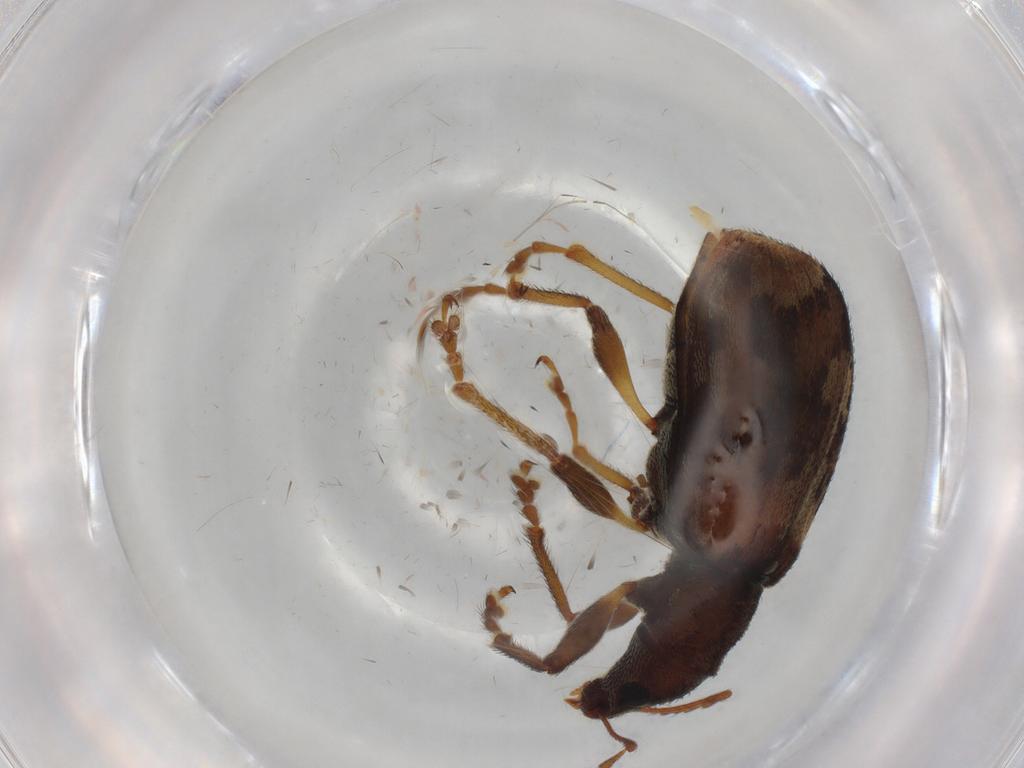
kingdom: Animalia
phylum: Arthropoda
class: Insecta
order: Coleoptera
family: Curculionidae
